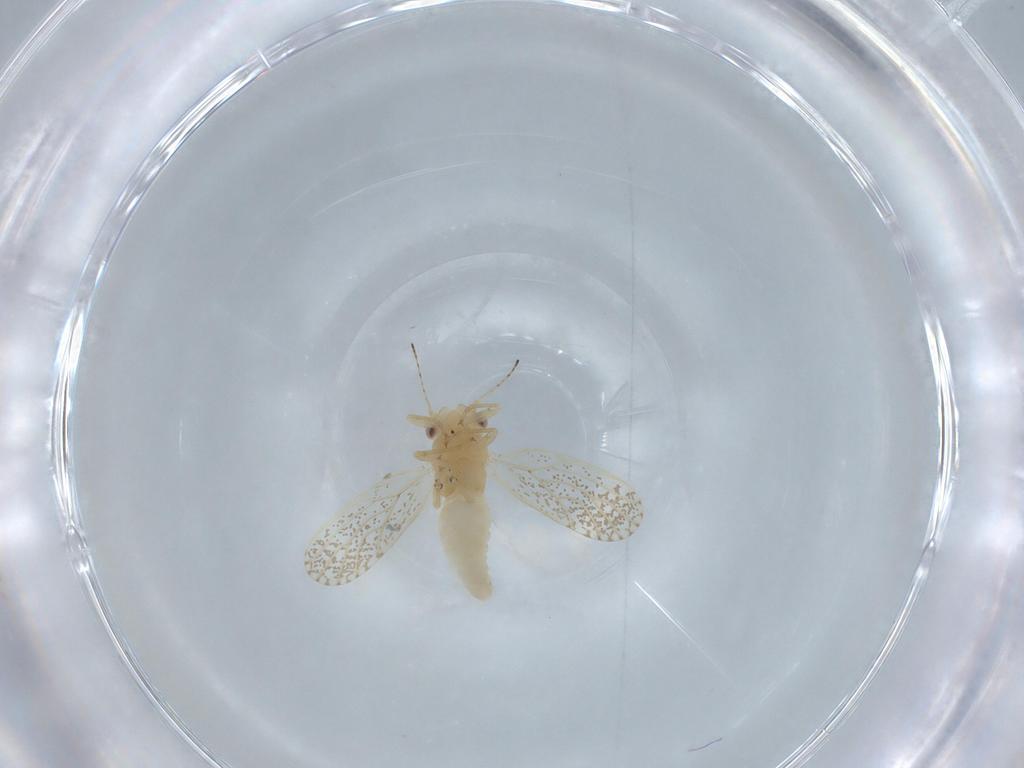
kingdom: Animalia
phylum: Arthropoda
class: Insecta
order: Hemiptera
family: Psyllidae
